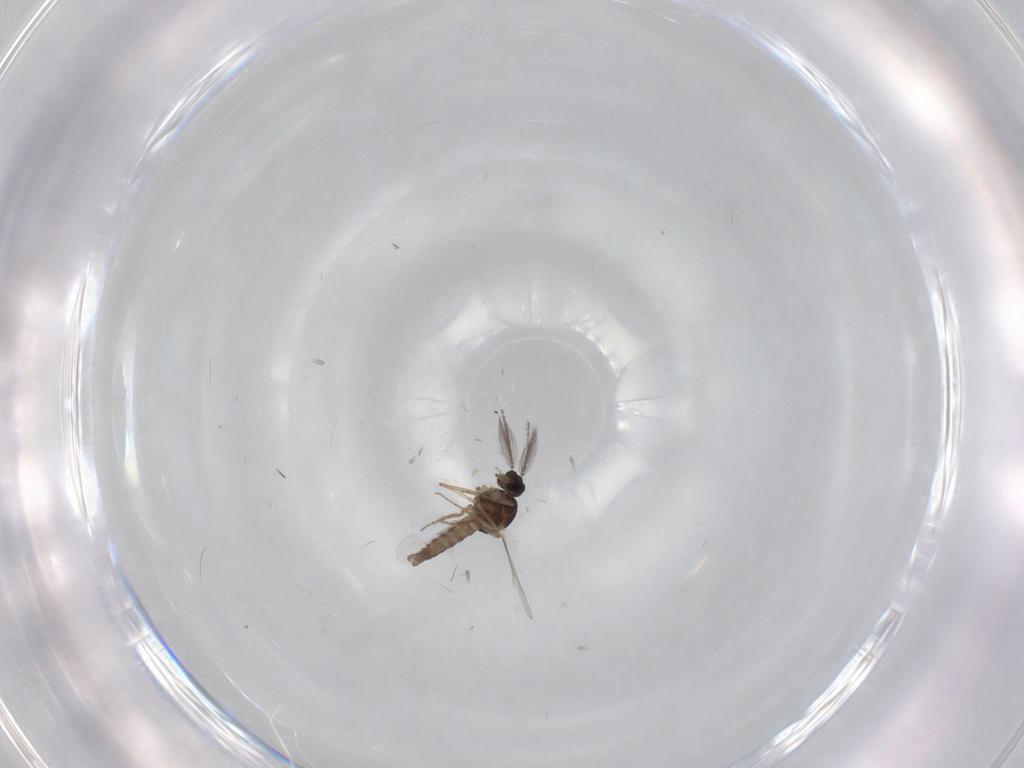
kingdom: Animalia
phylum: Arthropoda
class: Insecta
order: Diptera
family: Ceratopogonidae
